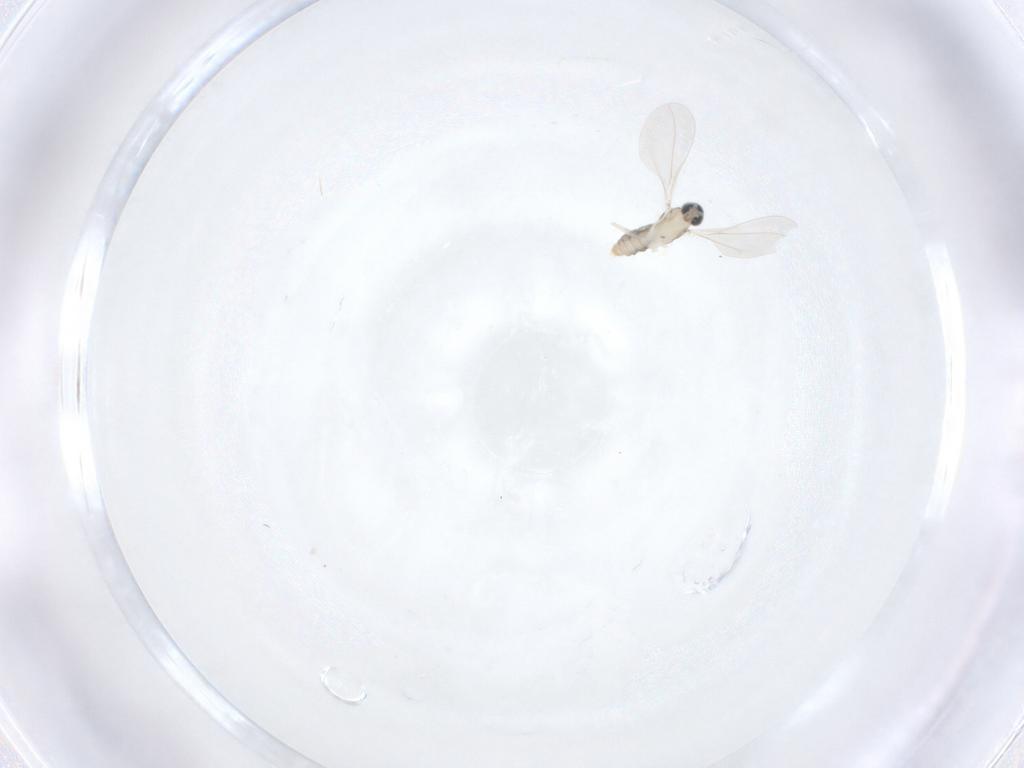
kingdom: Animalia
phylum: Arthropoda
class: Insecta
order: Diptera
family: Cecidomyiidae
